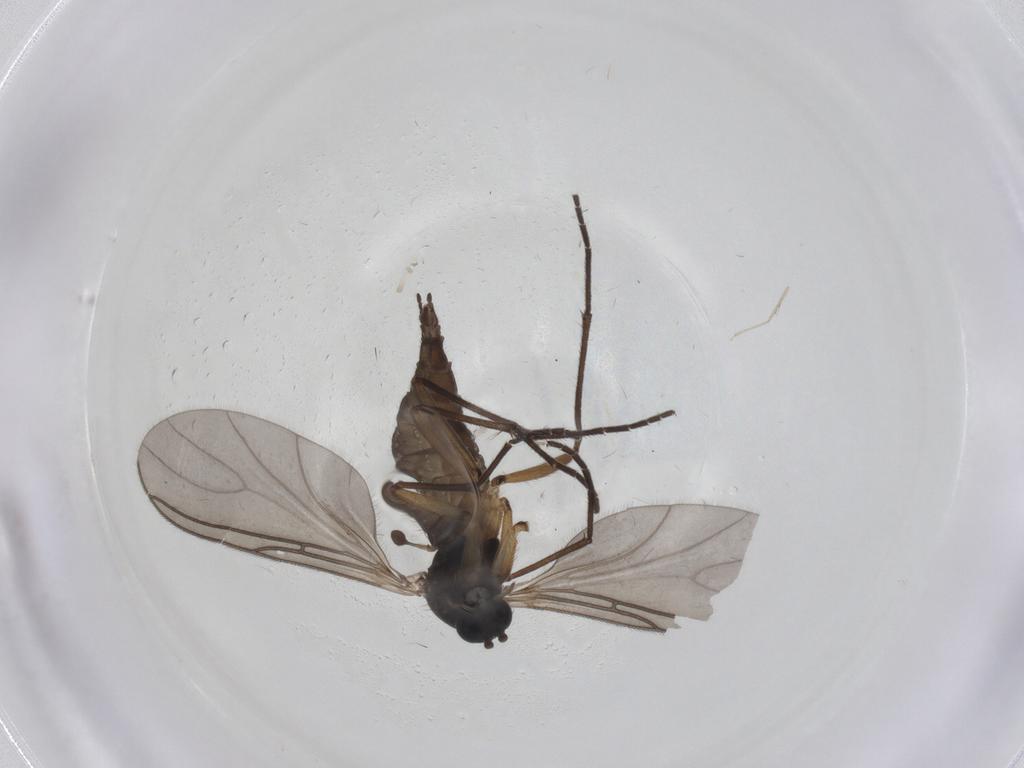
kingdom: Animalia
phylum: Arthropoda
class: Insecta
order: Diptera
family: Sciaridae
